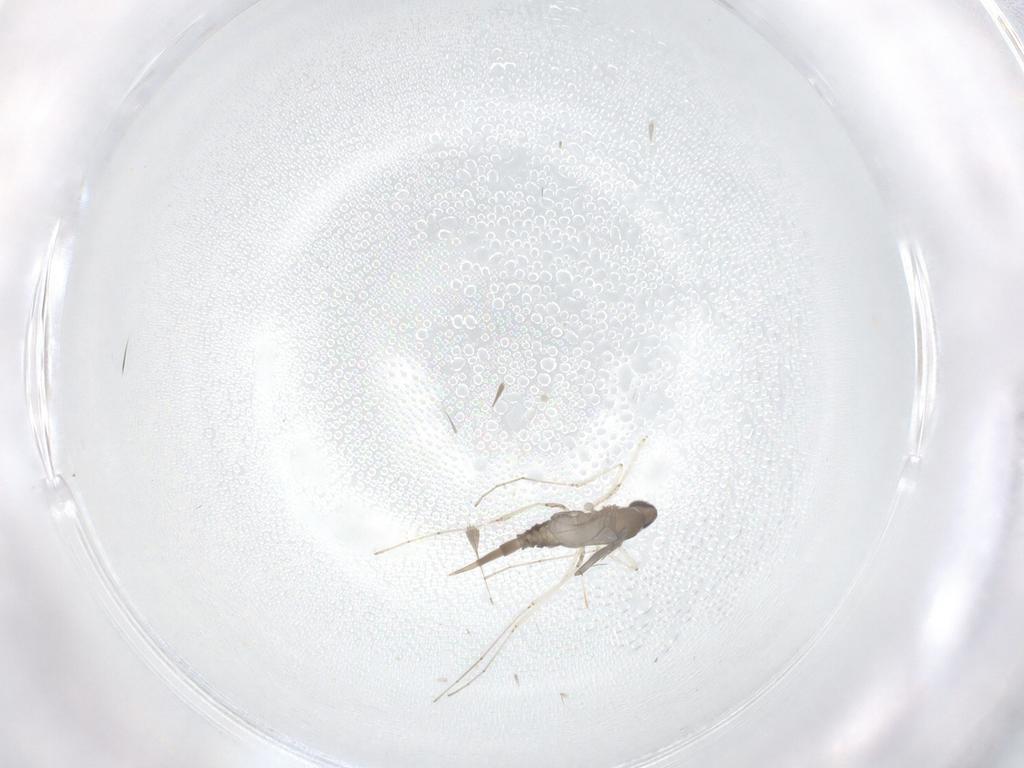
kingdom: Animalia
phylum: Arthropoda
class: Insecta
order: Diptera
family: Cecidomyiidae
